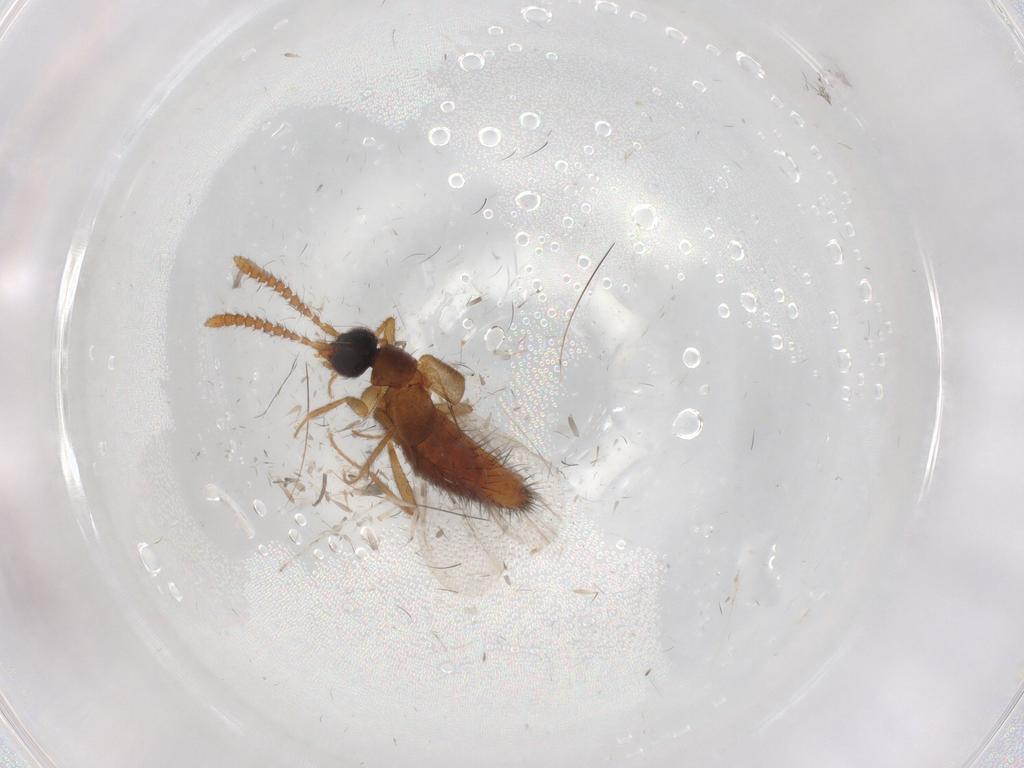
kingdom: Animalia
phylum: Arthropoda
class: Insecta
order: Coleoptera
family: Staphylinidae
